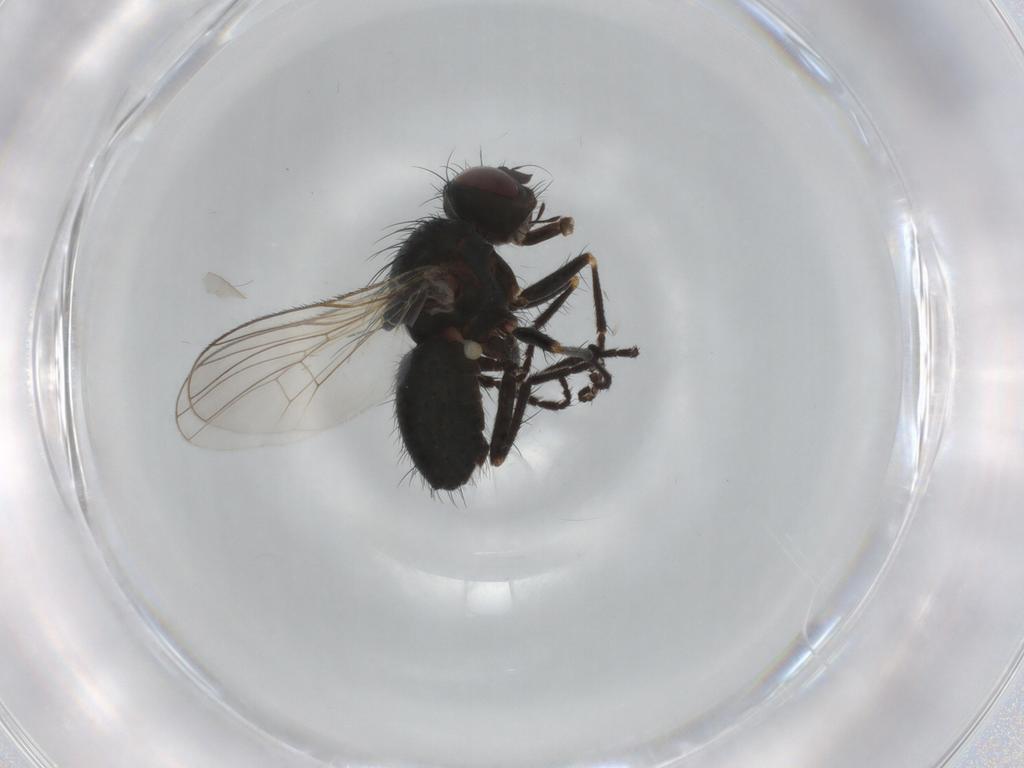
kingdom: Animalia
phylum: Arthropoda
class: Insecta
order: Diptera
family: Muscidae
